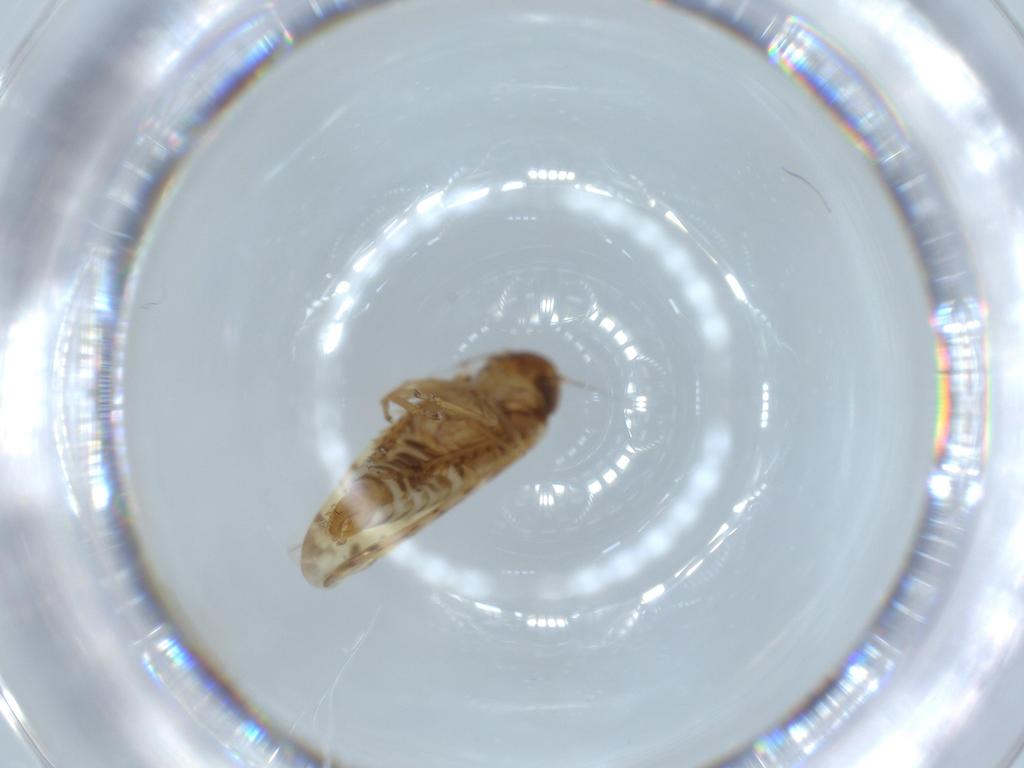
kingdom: Animalia
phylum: Arthropoda
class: Insecta
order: Hemiptera
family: Cicadellidae
